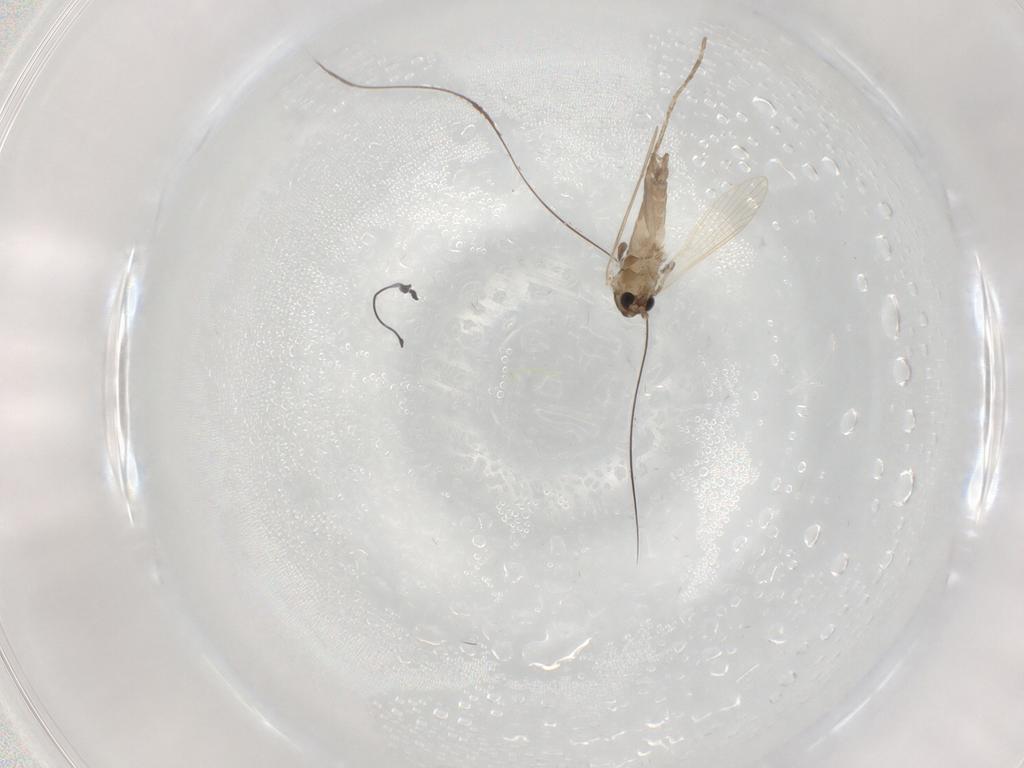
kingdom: Animalia
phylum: Arthropoda
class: Insecta
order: Diptera
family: Psychodidae
